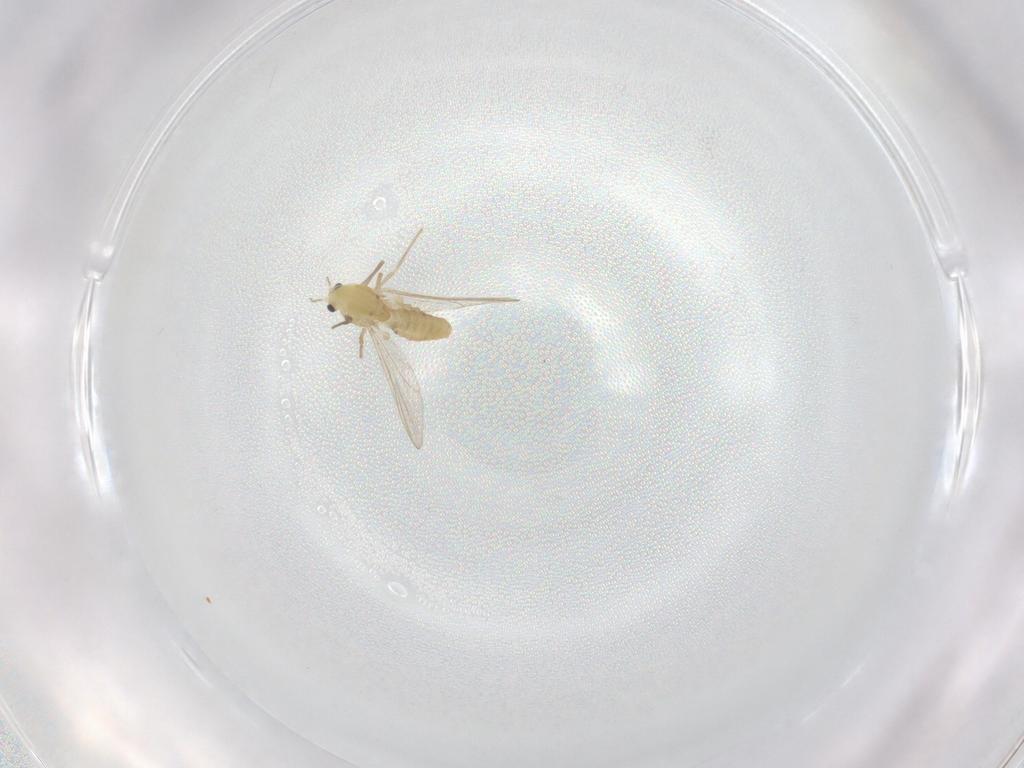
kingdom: Animalia
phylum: Arthropoda
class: Insecta
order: Diptera
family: Chironomidae
